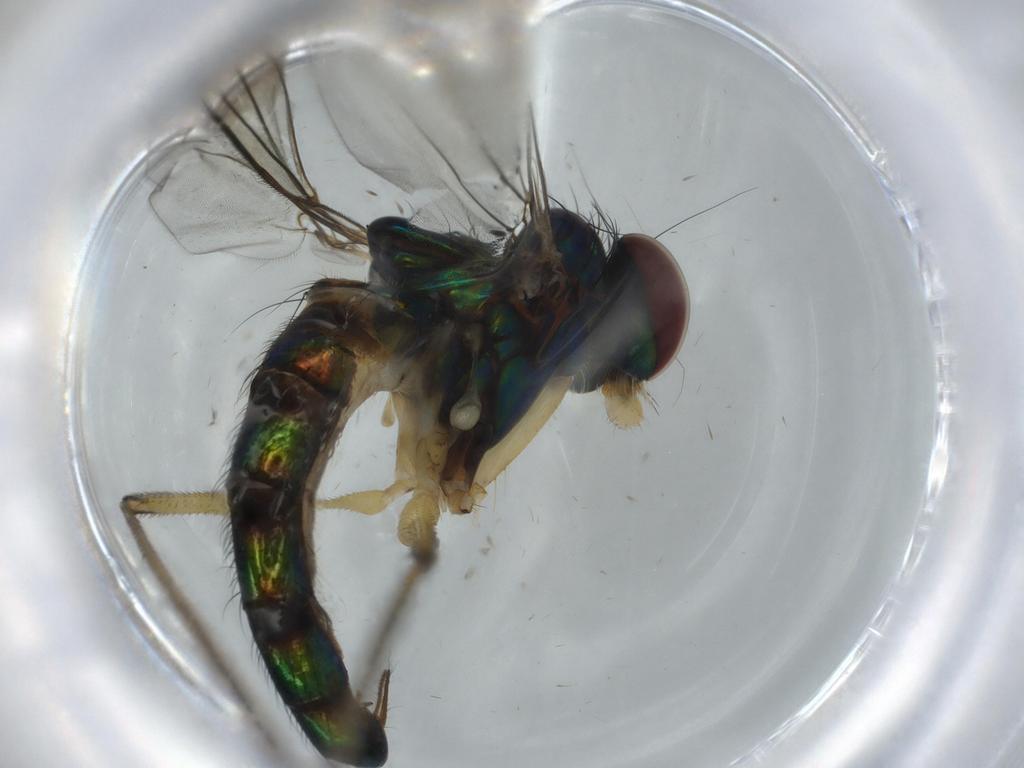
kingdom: Animalia
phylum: Arthropoda
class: Insecta
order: Diptera
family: Dolichopodidae
